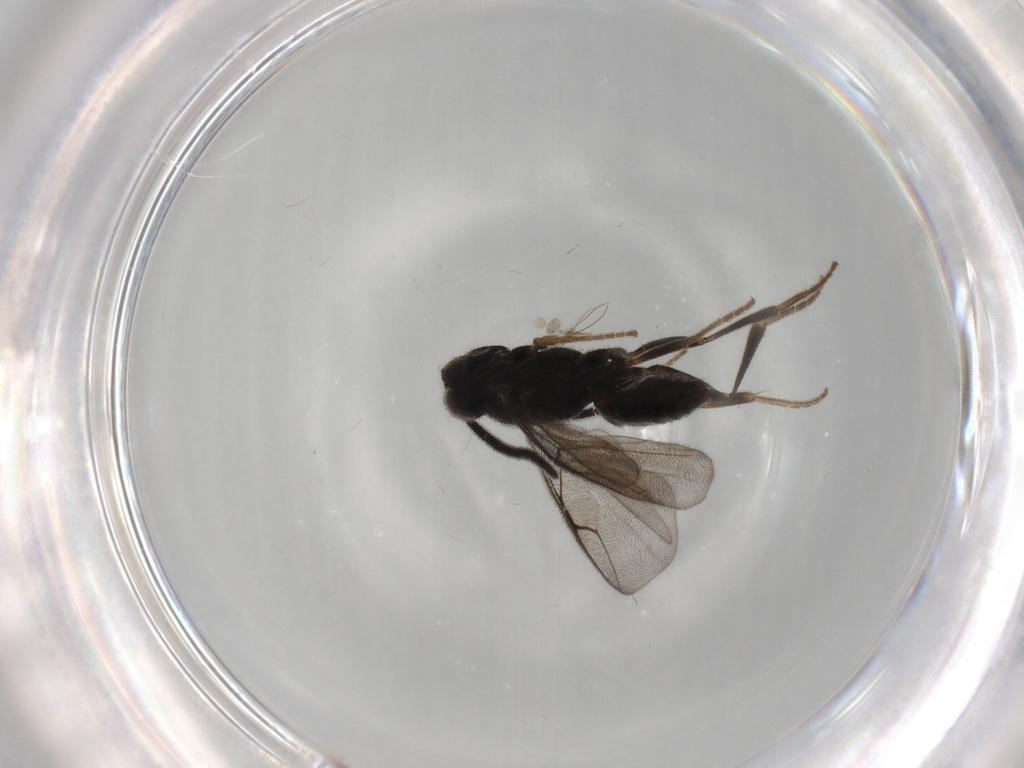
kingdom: Animalia
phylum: Arthropoda
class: Insecta
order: Hymenoptera
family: Dryinidae
